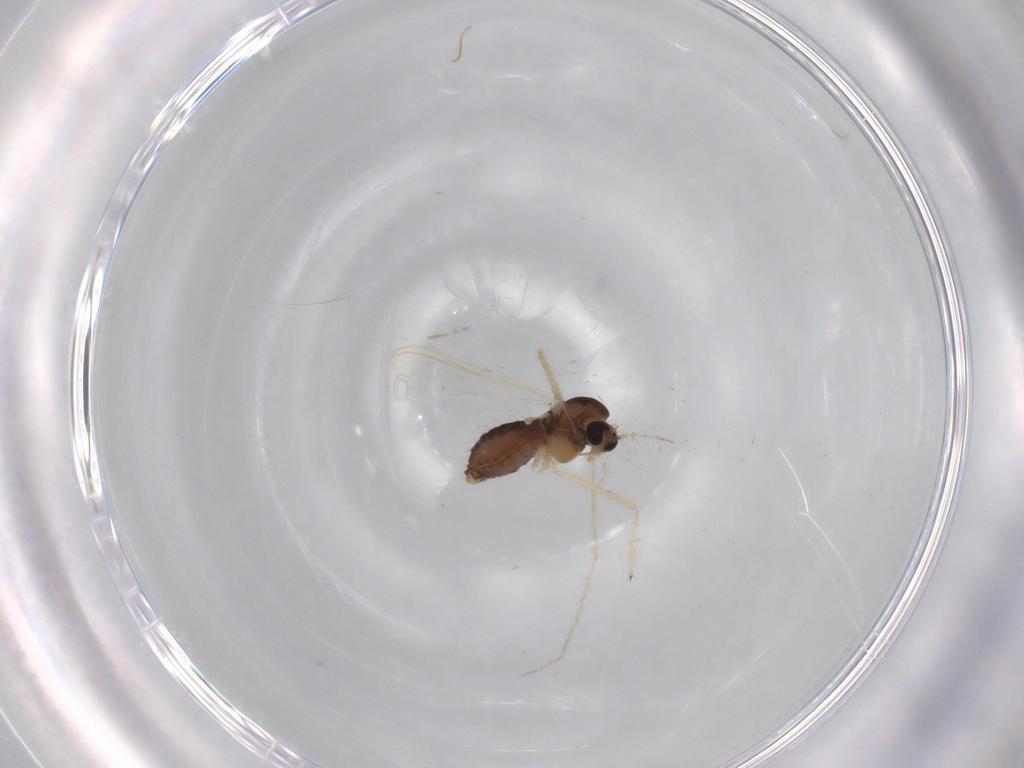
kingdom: Animalia
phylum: Arthropoda
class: Insecta
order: Diptera
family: Chironomidae
